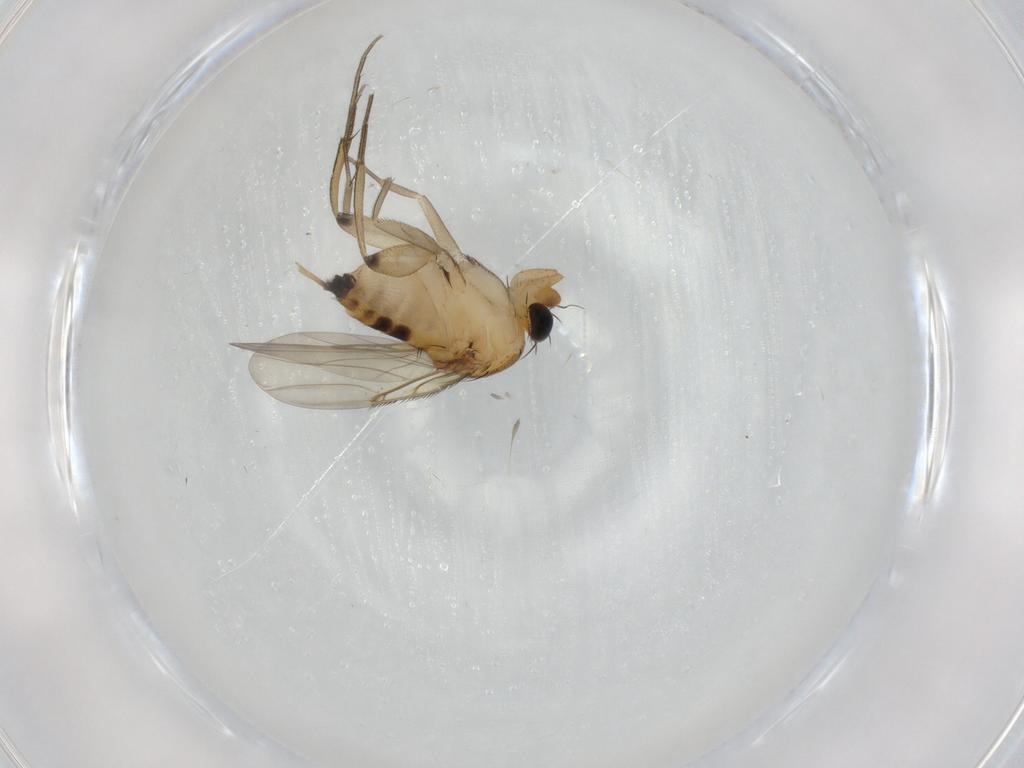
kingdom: Animalia
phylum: Arthropoda
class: Insecta
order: Diptera
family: Phoridae
